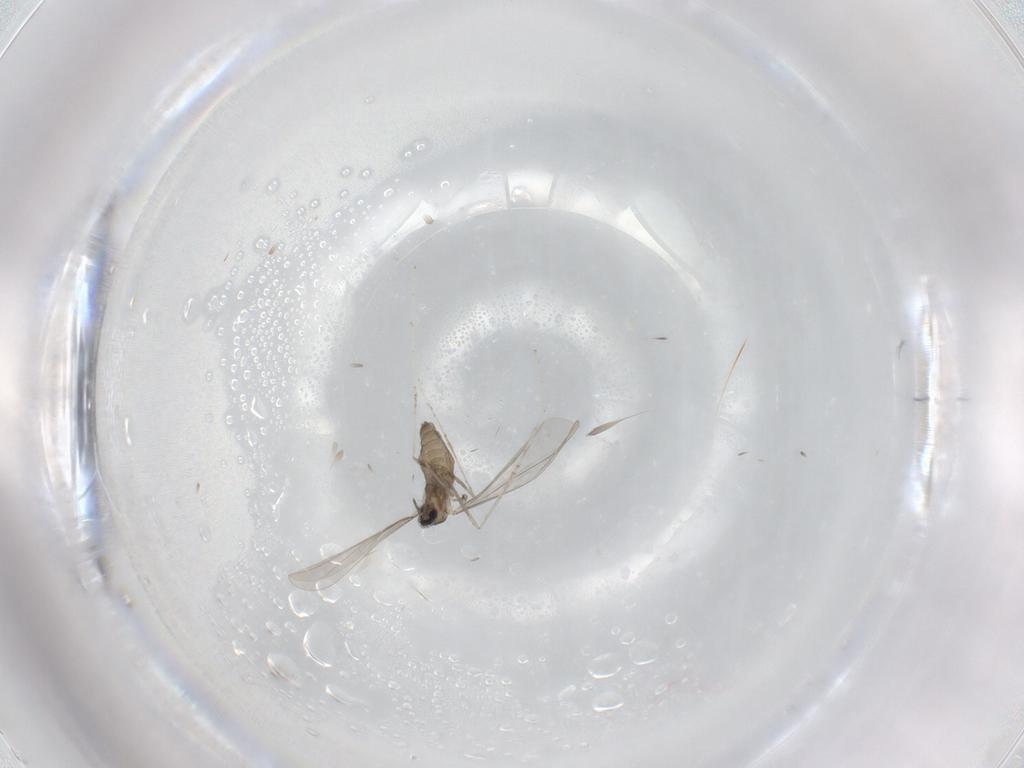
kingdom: Animalia
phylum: Arthropoda
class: Insecta
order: Diptera
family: Cecidomyiidae
